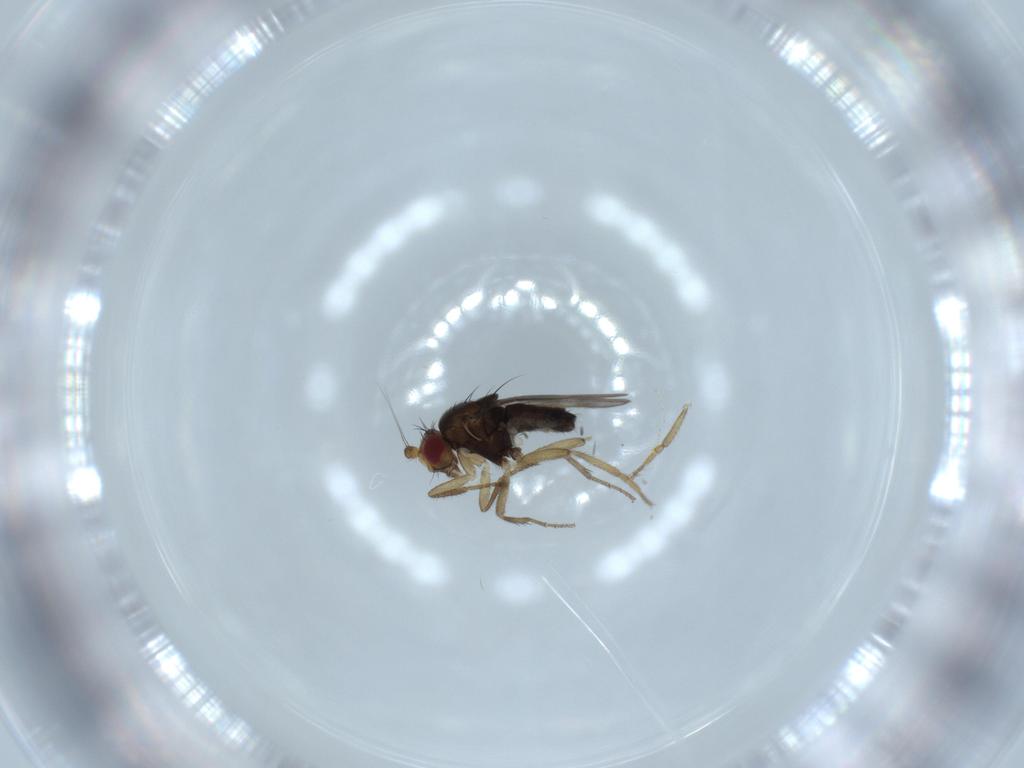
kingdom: Animalia
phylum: Arthropoda
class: Insecta
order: Diptera
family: Sphaeroceridae
